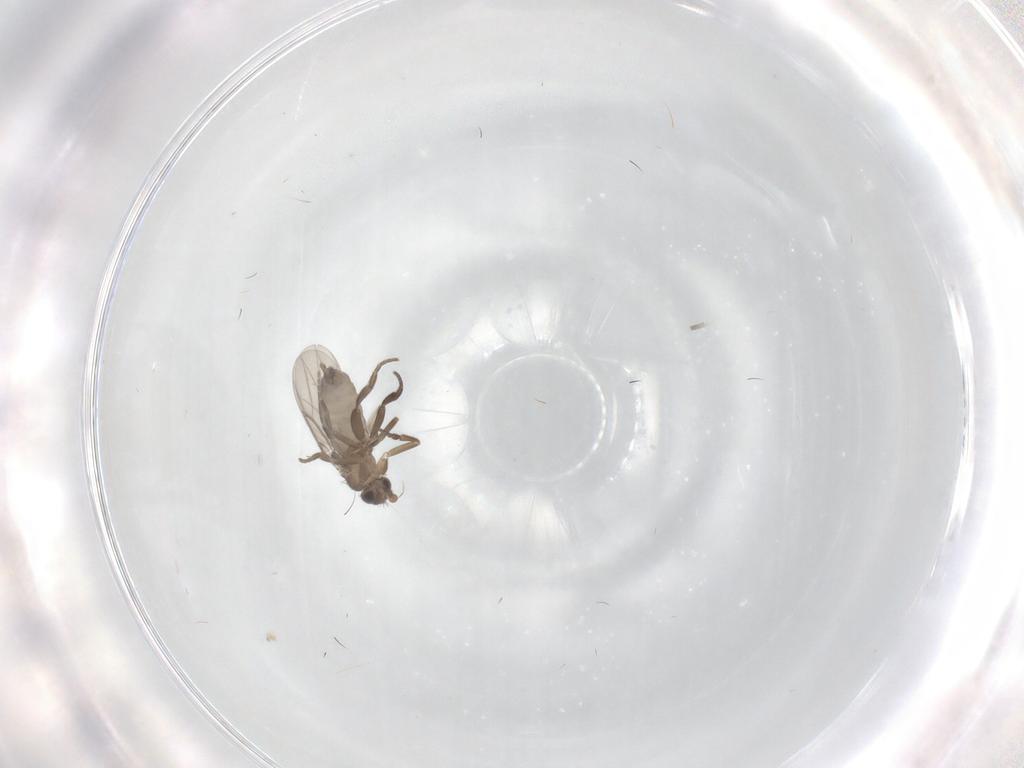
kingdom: Animalia
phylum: Arthropoda
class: Insecta
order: Diptera
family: Phoridae
